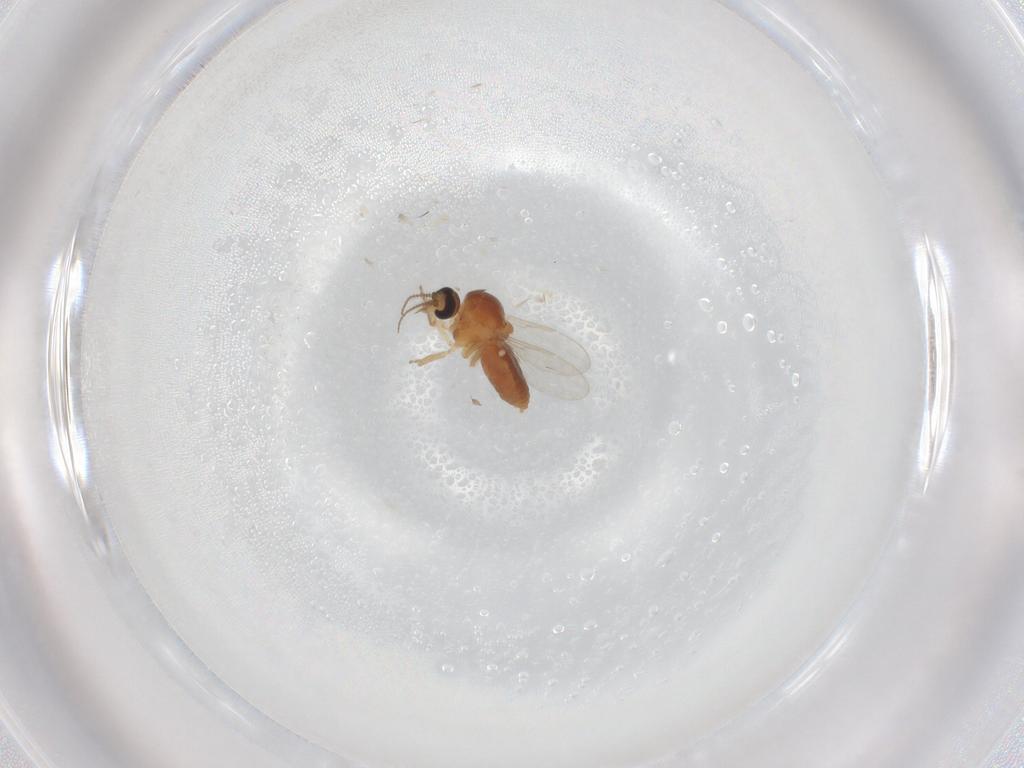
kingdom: Animalia
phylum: Arthropoda
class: Insecta
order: Diptera
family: Ceratopogonidae
